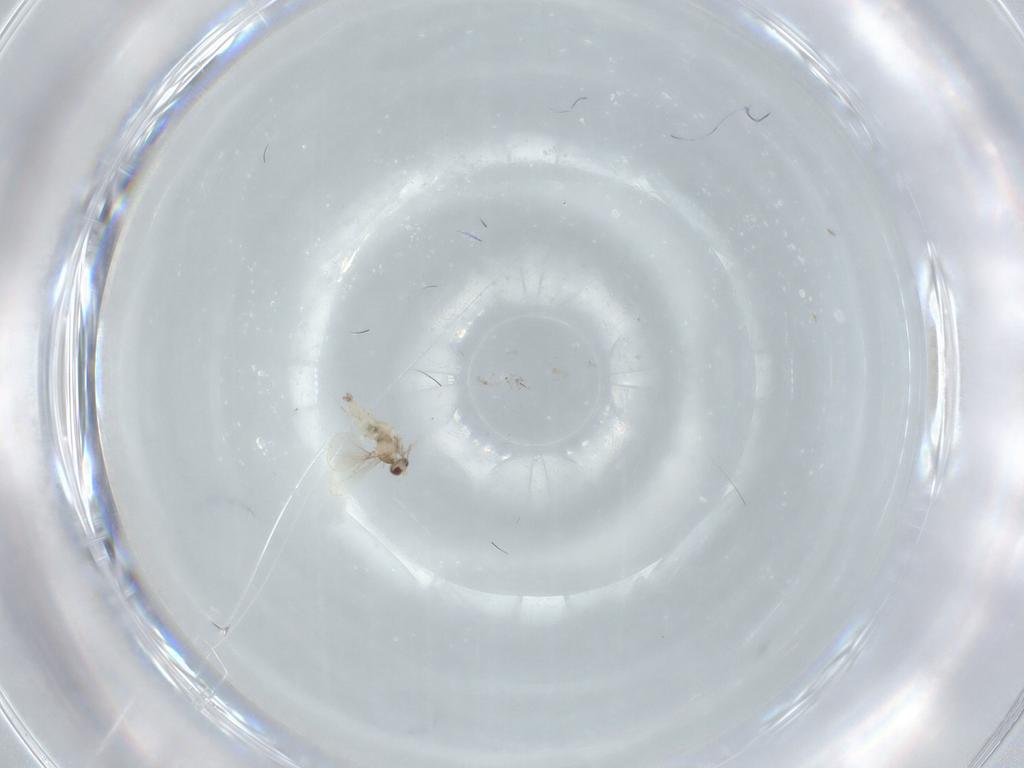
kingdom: Animalia
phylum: Arthropoda
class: Insecta
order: Diptera
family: Cecidomyiidae
